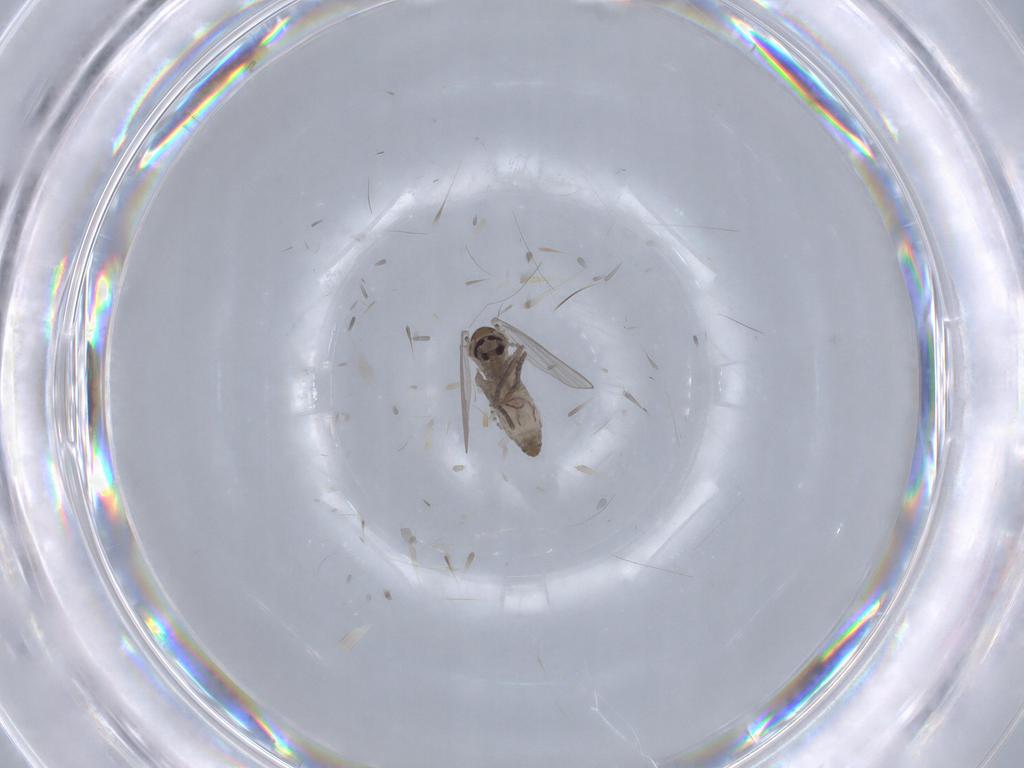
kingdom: Animalia
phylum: Arthropoda
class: Insecta
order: Diptera
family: Psychodidae
